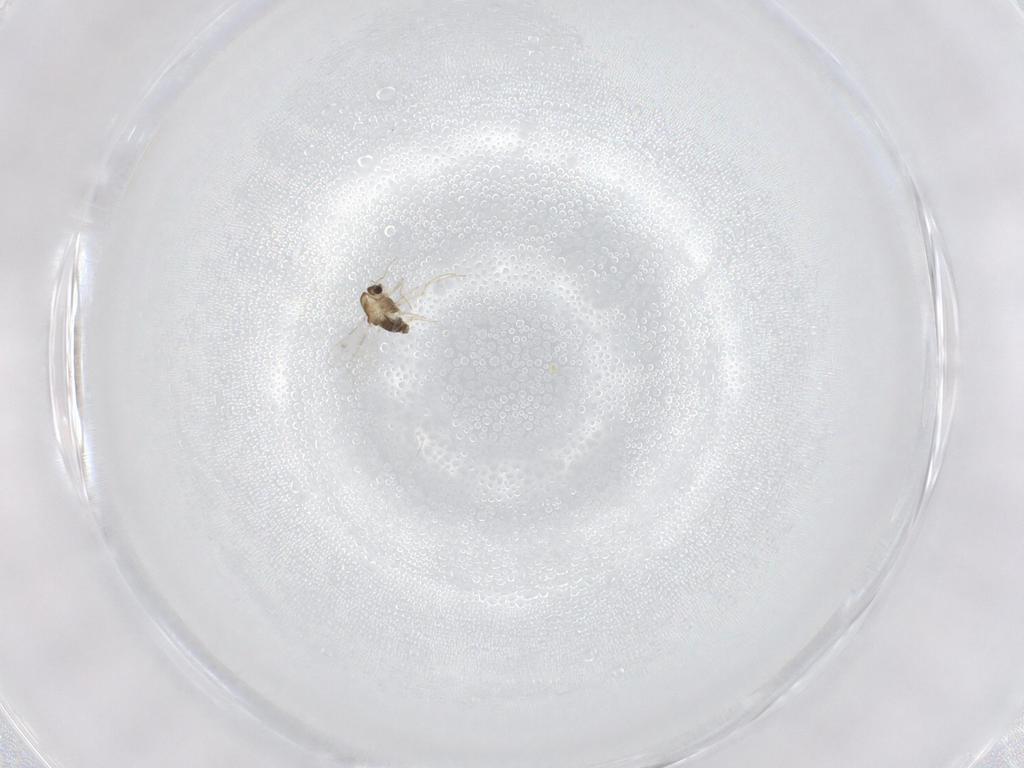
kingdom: Animalia
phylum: Arthropoda
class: Insecta
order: Diptera
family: Chironomidae
